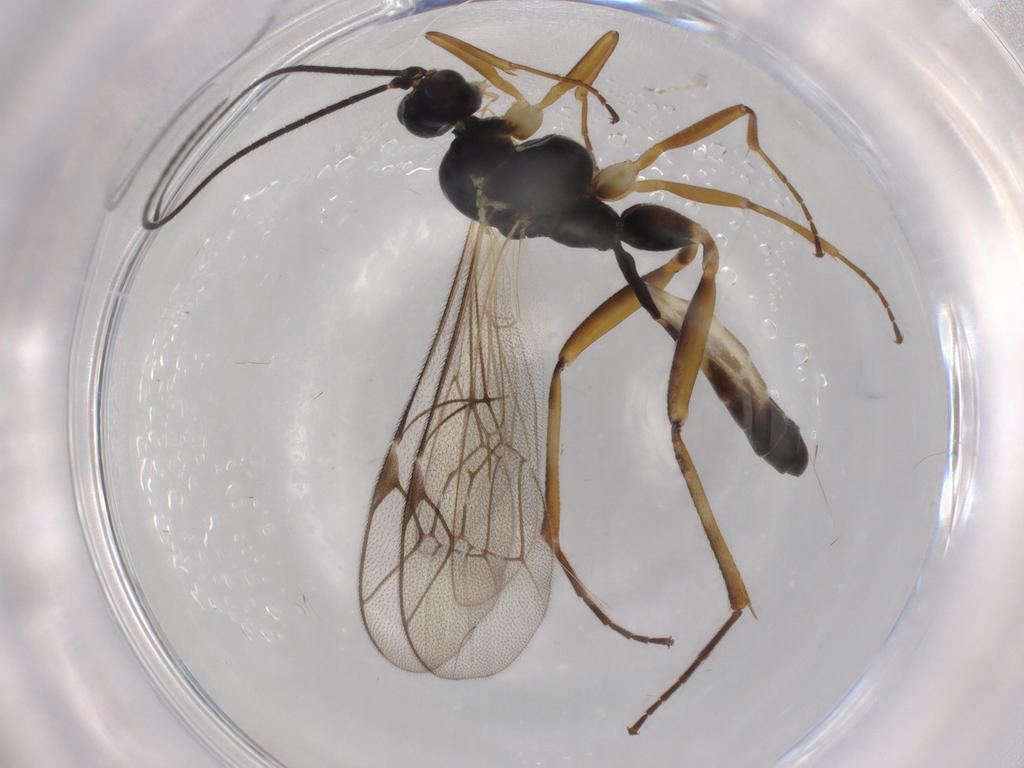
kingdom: Animalia
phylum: Arthropoda
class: Insecta
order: Hymenoptera
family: Ichneumonidae
